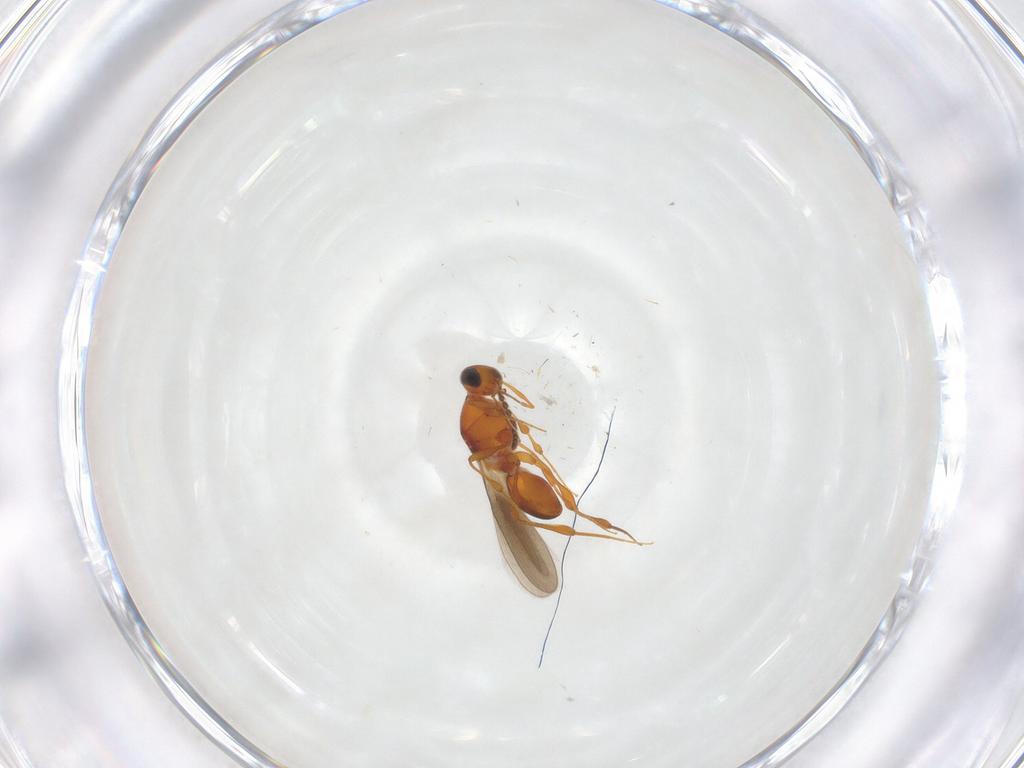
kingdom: Animalia
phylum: Arthropoda
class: Insecta
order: Hymenoptera
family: Platygastridae
